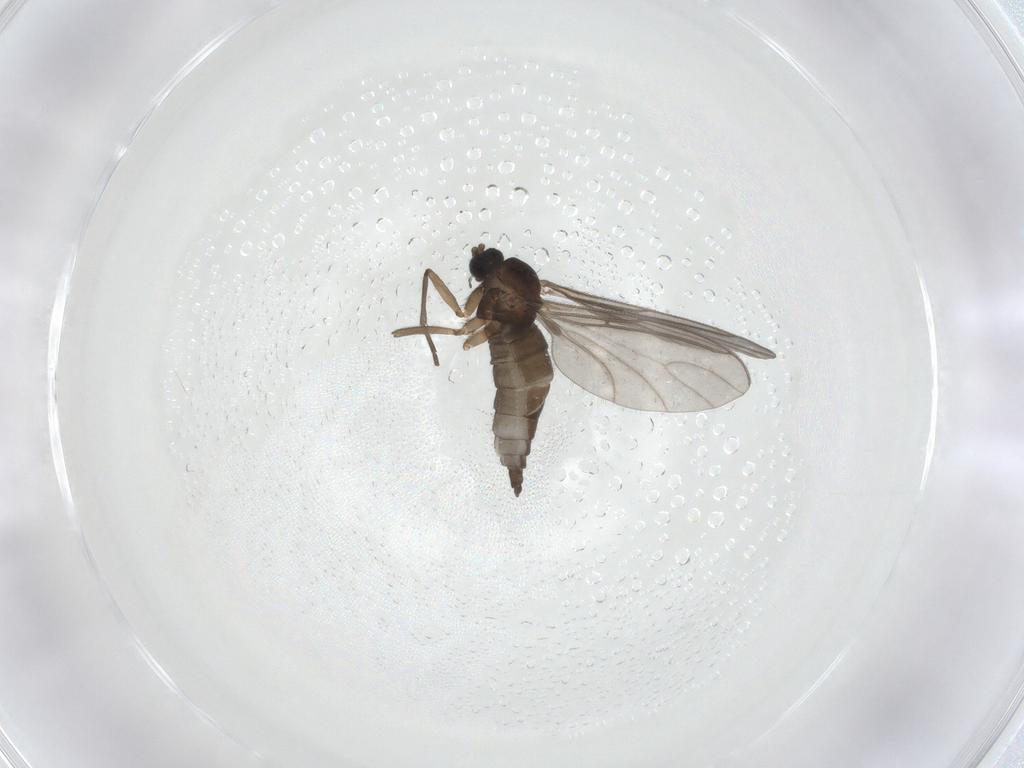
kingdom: Animalia
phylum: Arthropoda
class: Insecta
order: Diptera
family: Sciaridae
